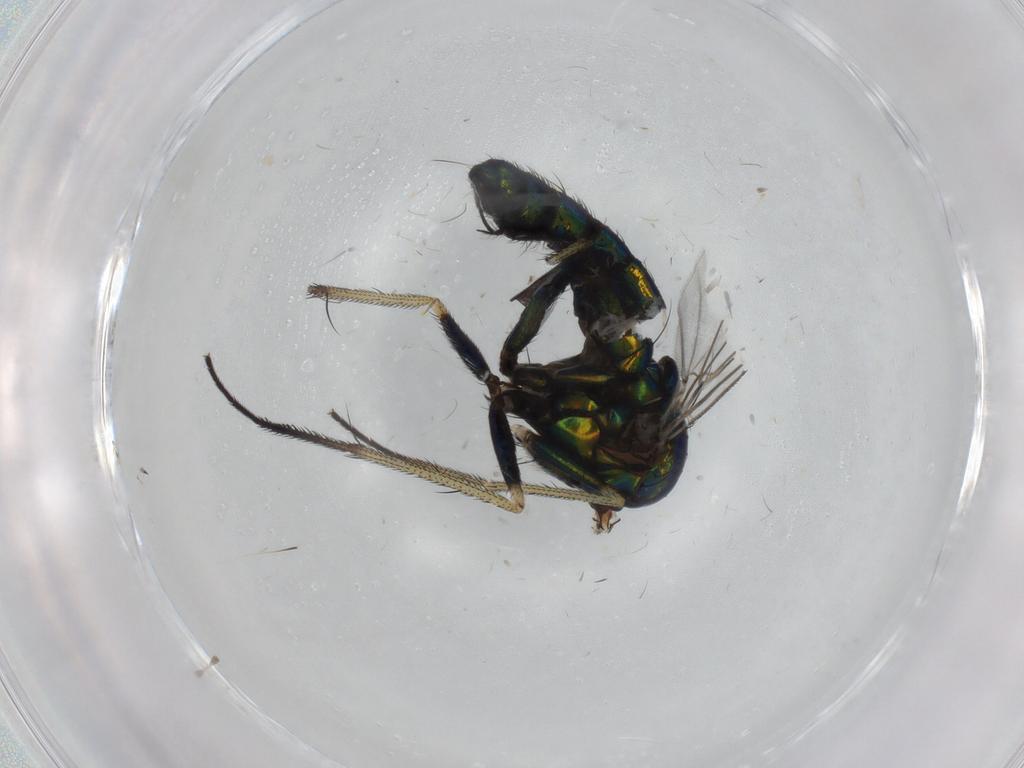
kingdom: Animalia
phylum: Arthropoda
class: Insecta
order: Diptera
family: Dolichopodidae
